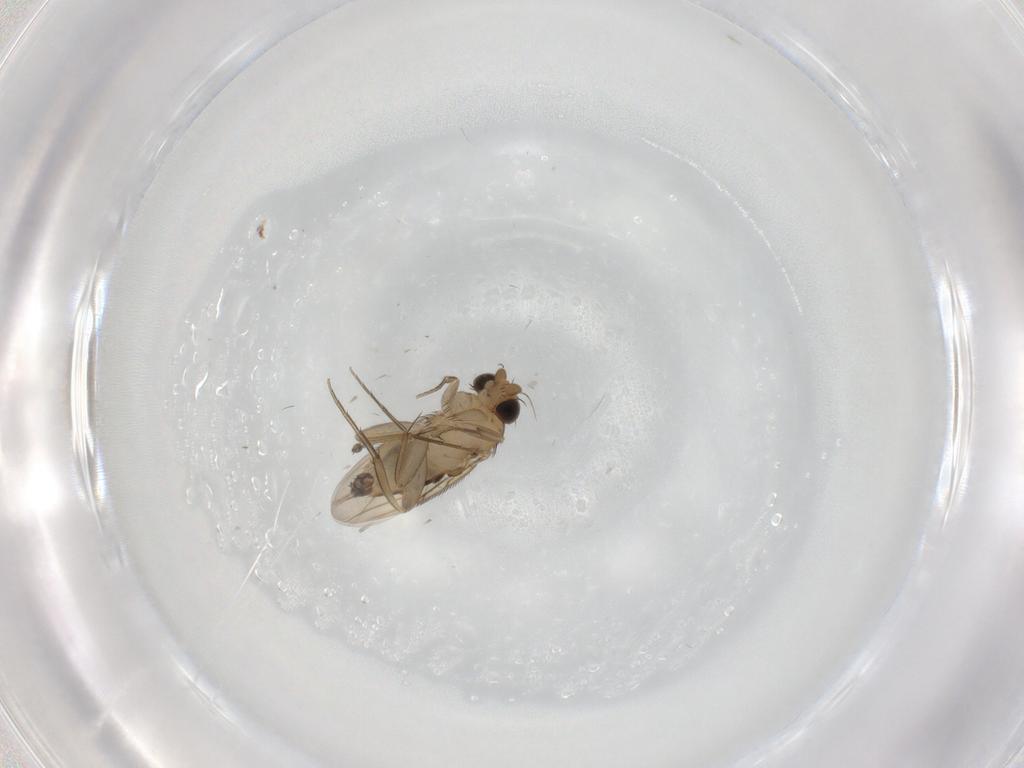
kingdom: Animalia
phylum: Arthropoda
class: Insecta
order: Diptera
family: Phoridae
